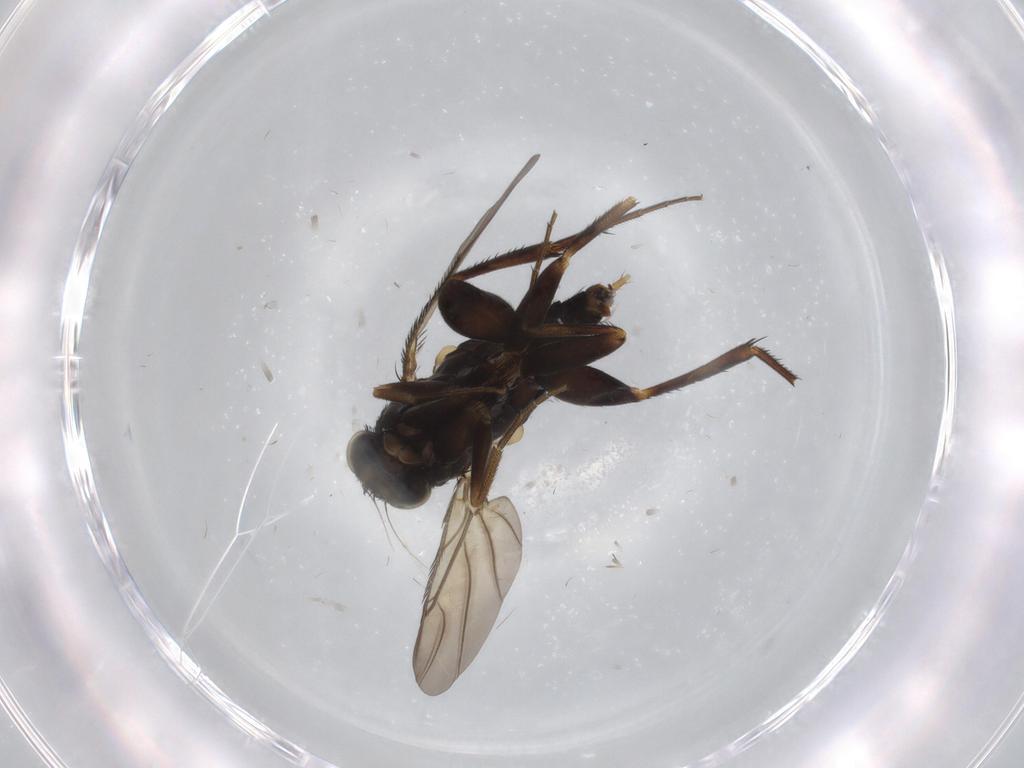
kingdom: Animalia
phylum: Arthropoda
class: Insecta
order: Diptera
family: Phoridae
